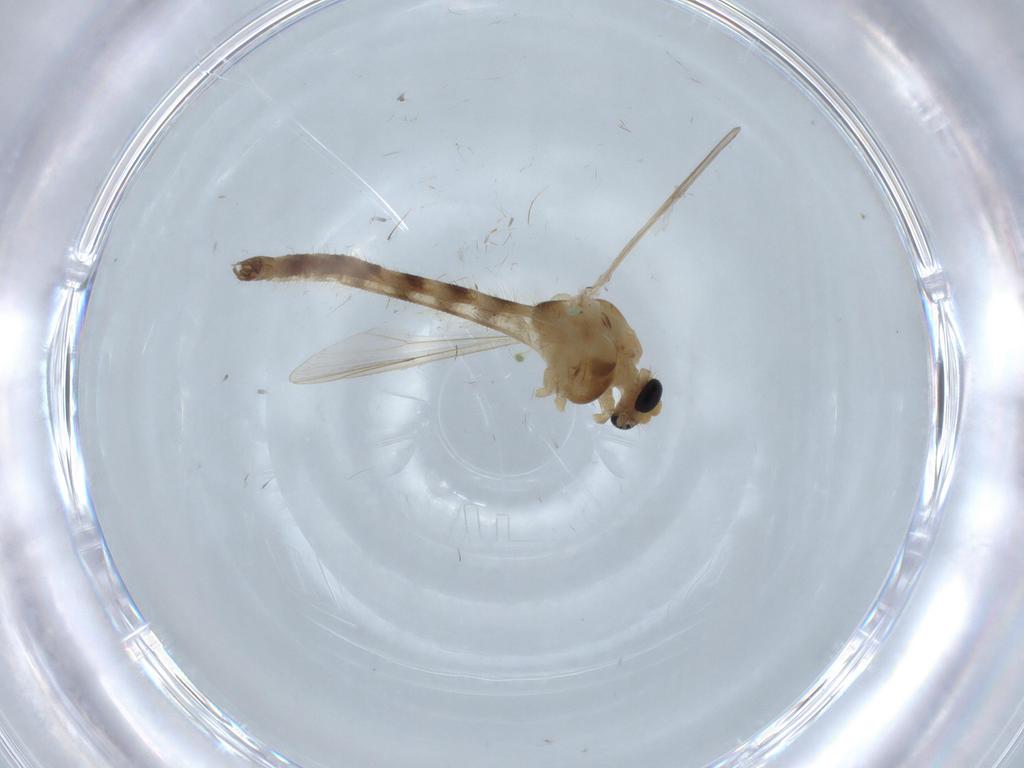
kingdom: Animalia
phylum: Arthropoda
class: Insecta
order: Diptera
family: Chironomidae
